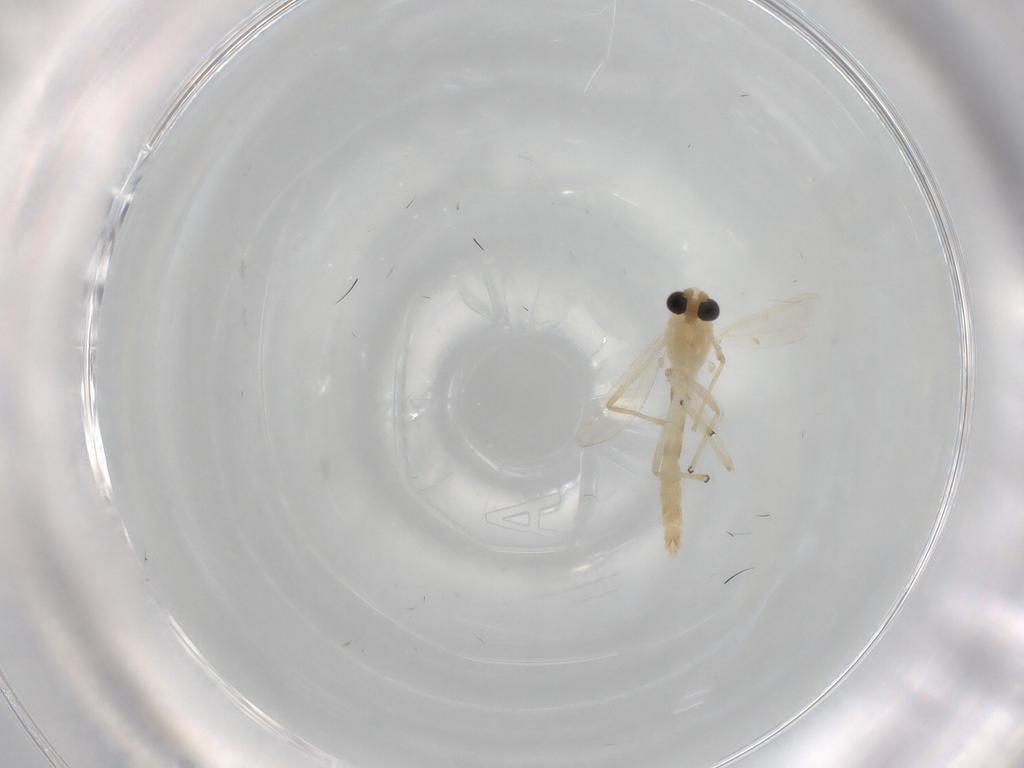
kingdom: Animalia
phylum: Arthropoda
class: Insecta
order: Diptera
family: Chironomidae
